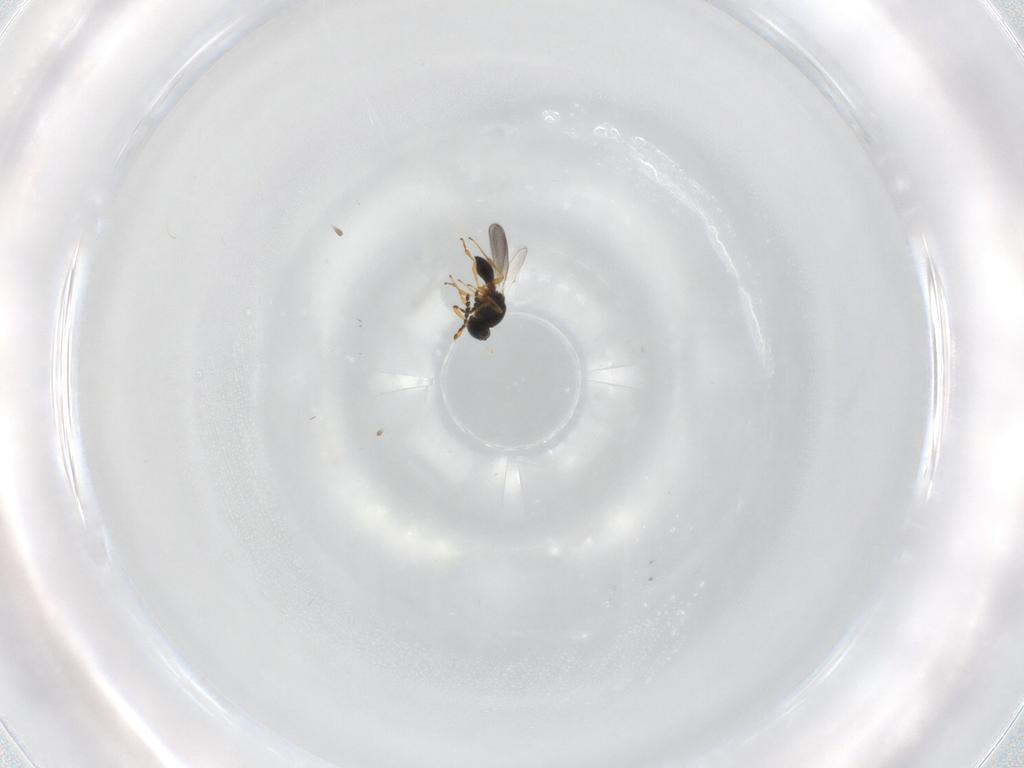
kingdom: Animalia
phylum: Arthropoda
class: Insecta
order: Hymenoptera
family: Platygastridae
